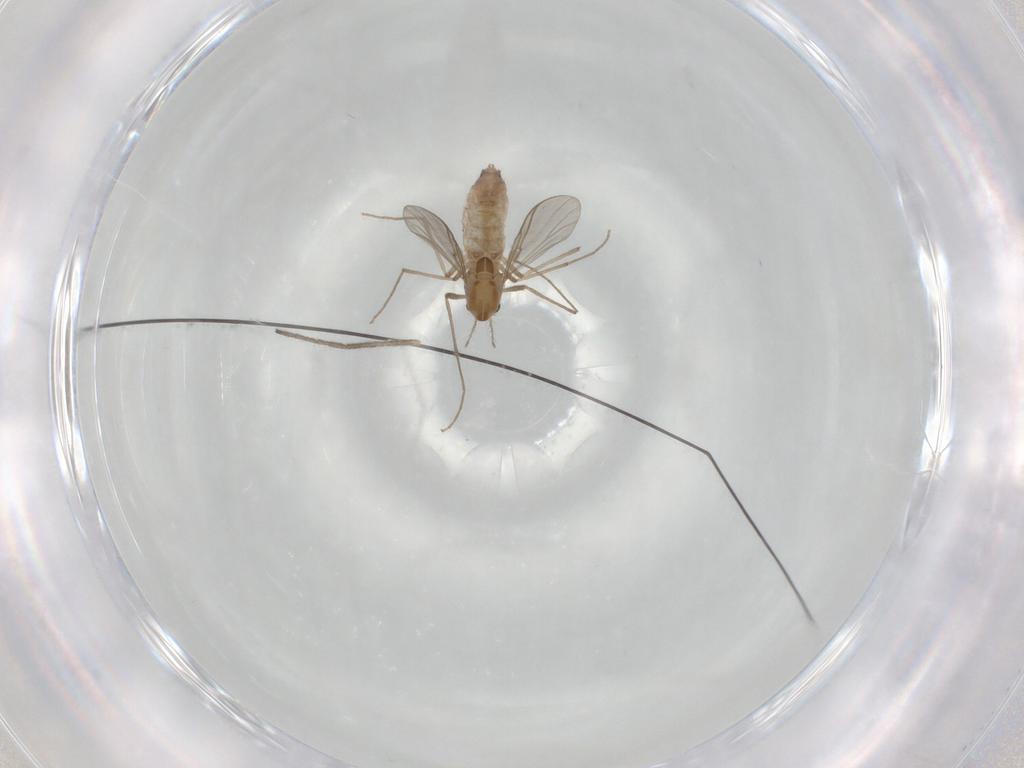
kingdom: Animalia
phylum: Arthropoda
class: Insecta
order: Diptera
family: Chironomidae
